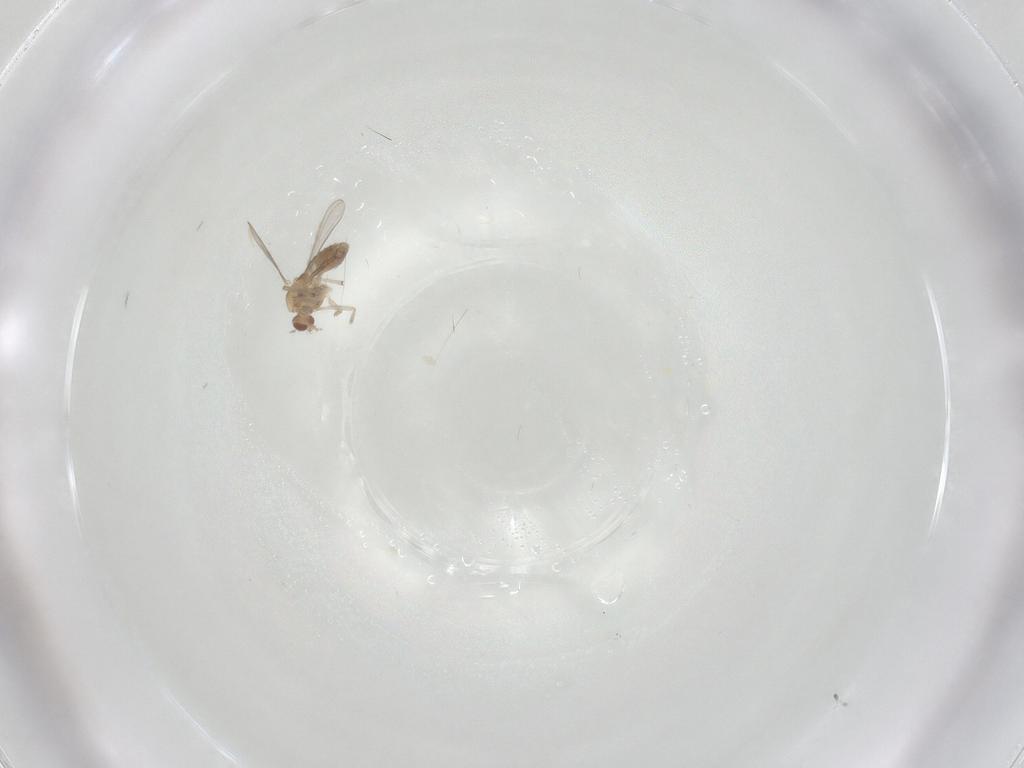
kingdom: Animalia
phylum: Arthropoda
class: Insecta
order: Diptera
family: Chironomidae
